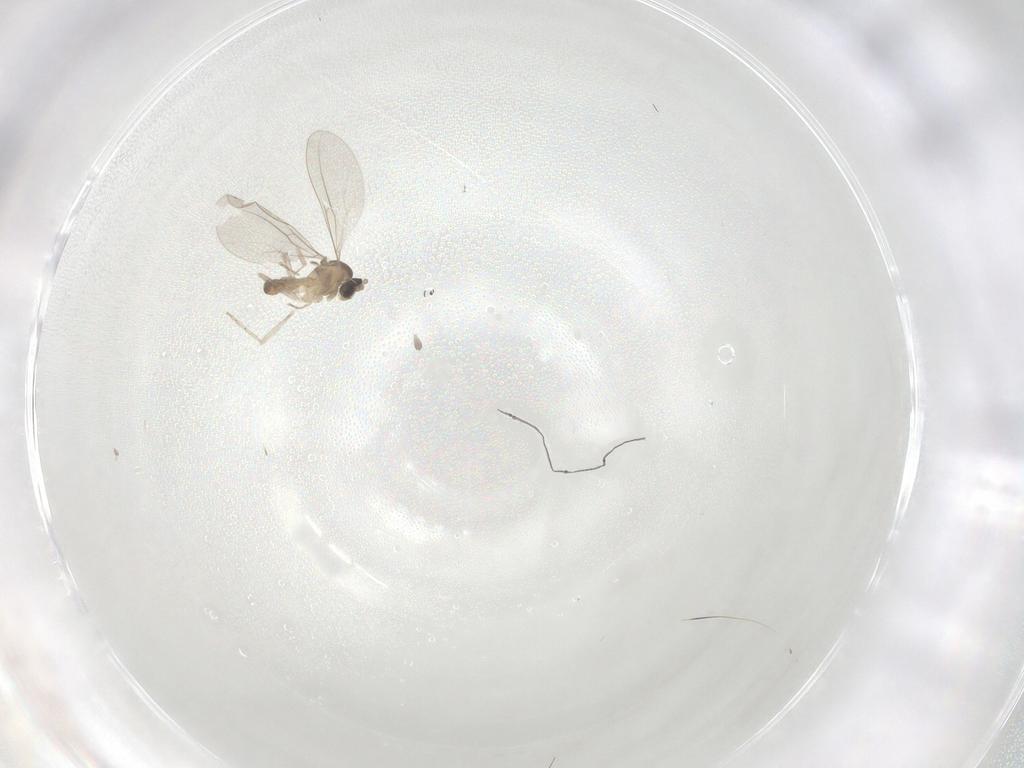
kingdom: Animalia
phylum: Arthropoda
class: Insecta
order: Diptera
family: Cecidomyiidae
